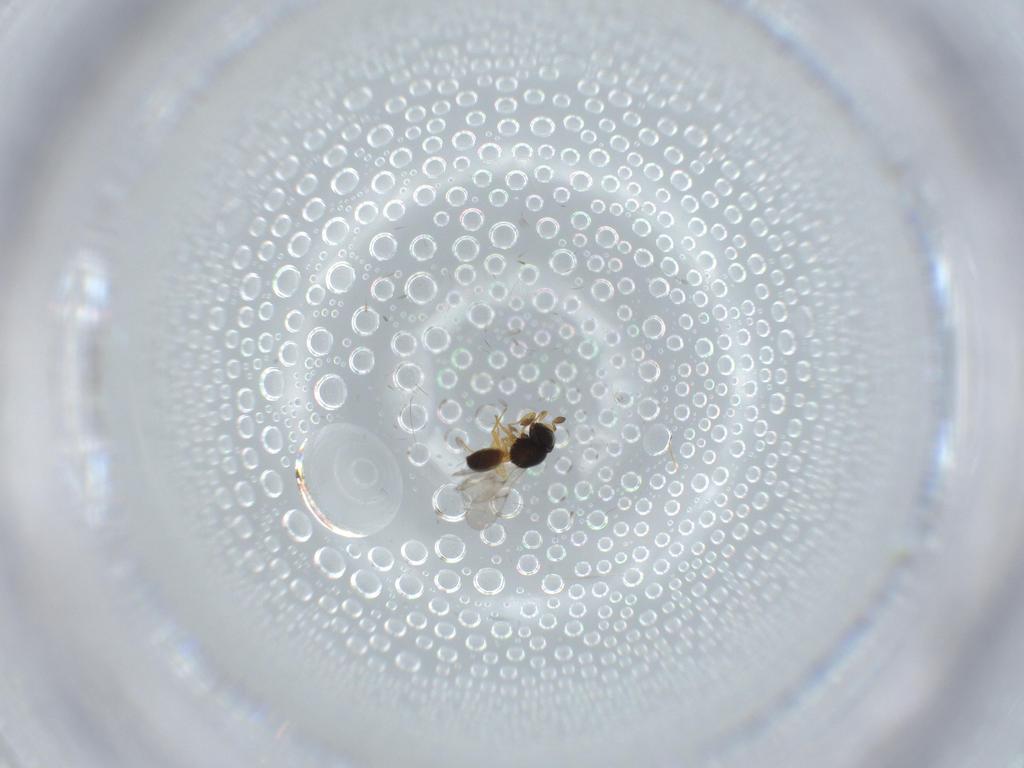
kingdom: Animalia
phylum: Arthropoda
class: Insecta
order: Hymenoptera
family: Scelionidae
